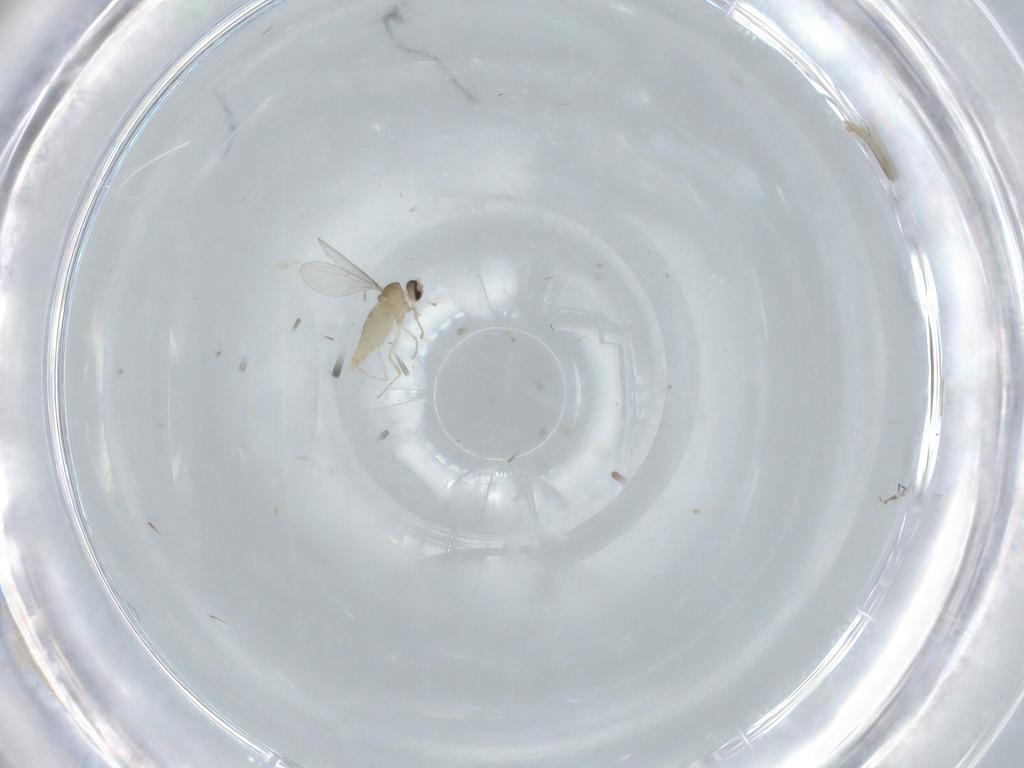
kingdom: Animalia
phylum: Arthropoda
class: Insecta
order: Diptera
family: Cecidomyiidae
